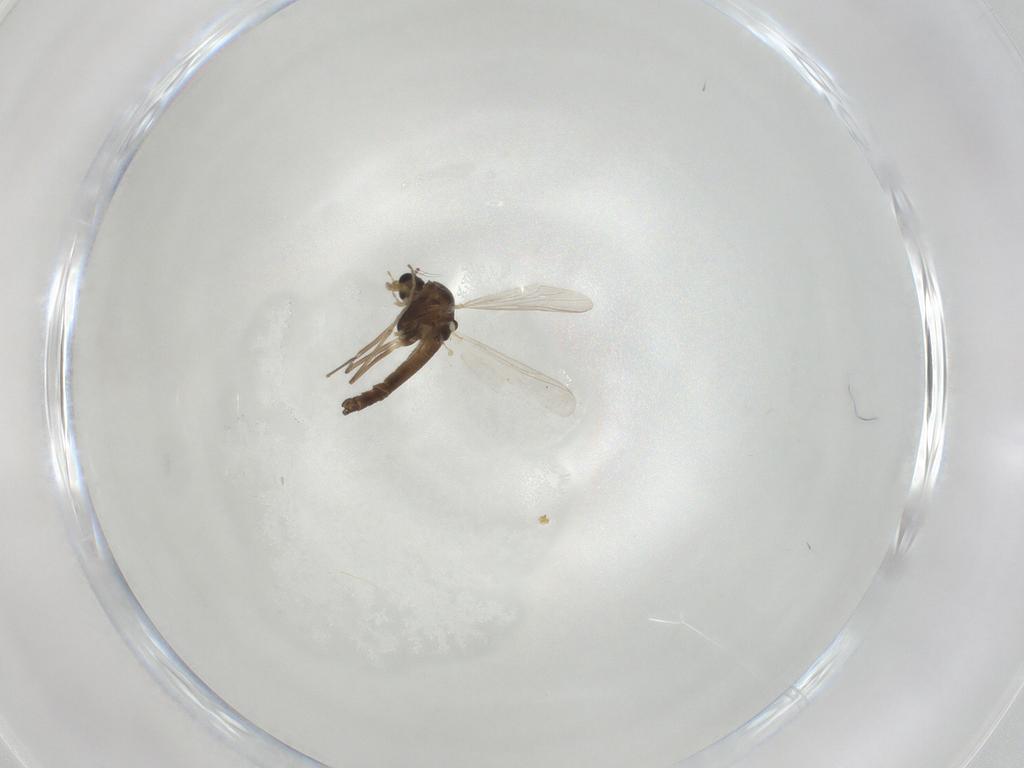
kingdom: Animalia
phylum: Arthropoda
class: Insecta
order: Diptera
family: Chironomidae
